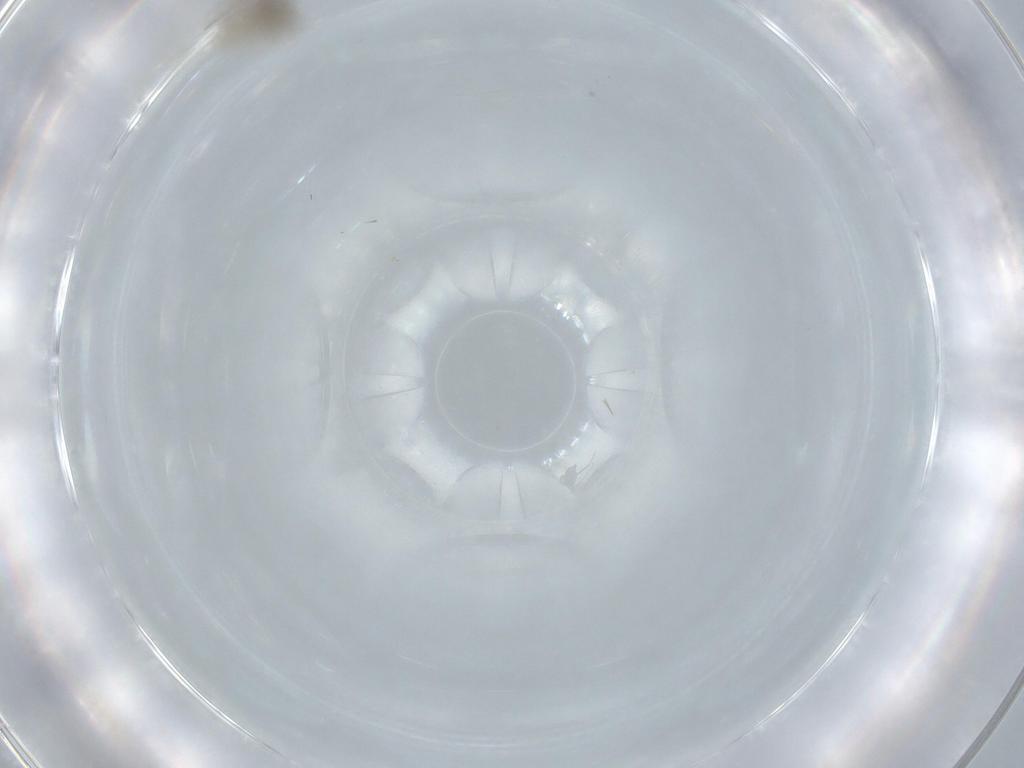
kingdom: Animalia
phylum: Arthropoda
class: Insecta
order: Diptera
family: Cecidomyiidae
